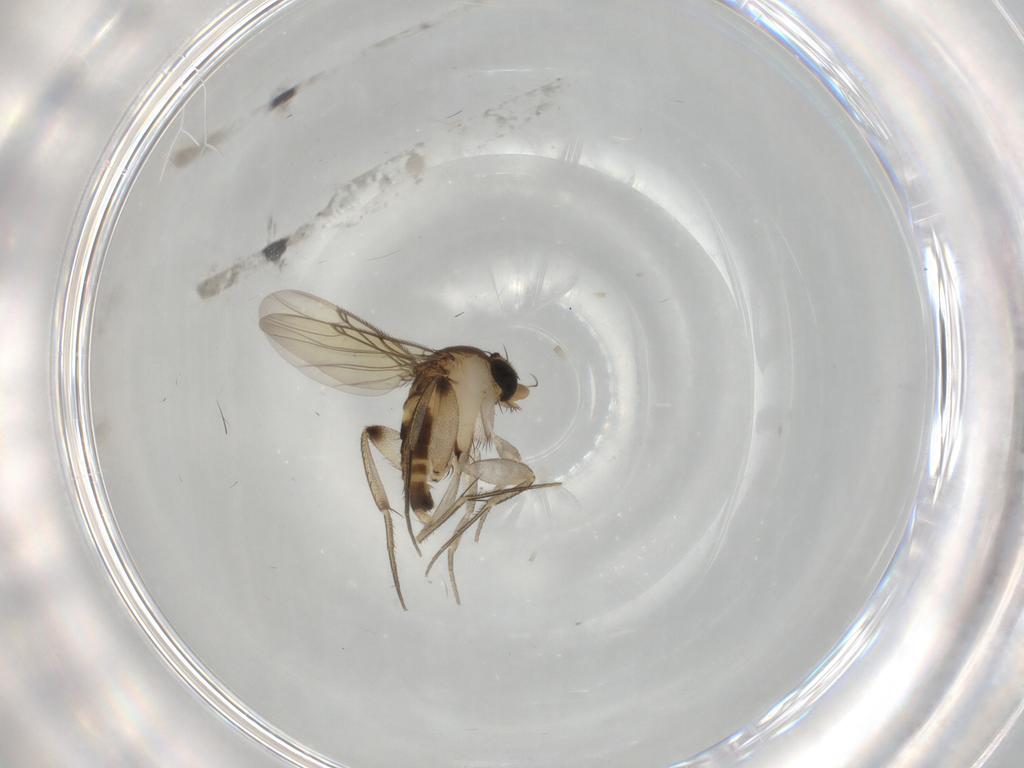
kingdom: Animalia
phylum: Arthropoda
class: Insecta
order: Diptera
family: Phoridae
